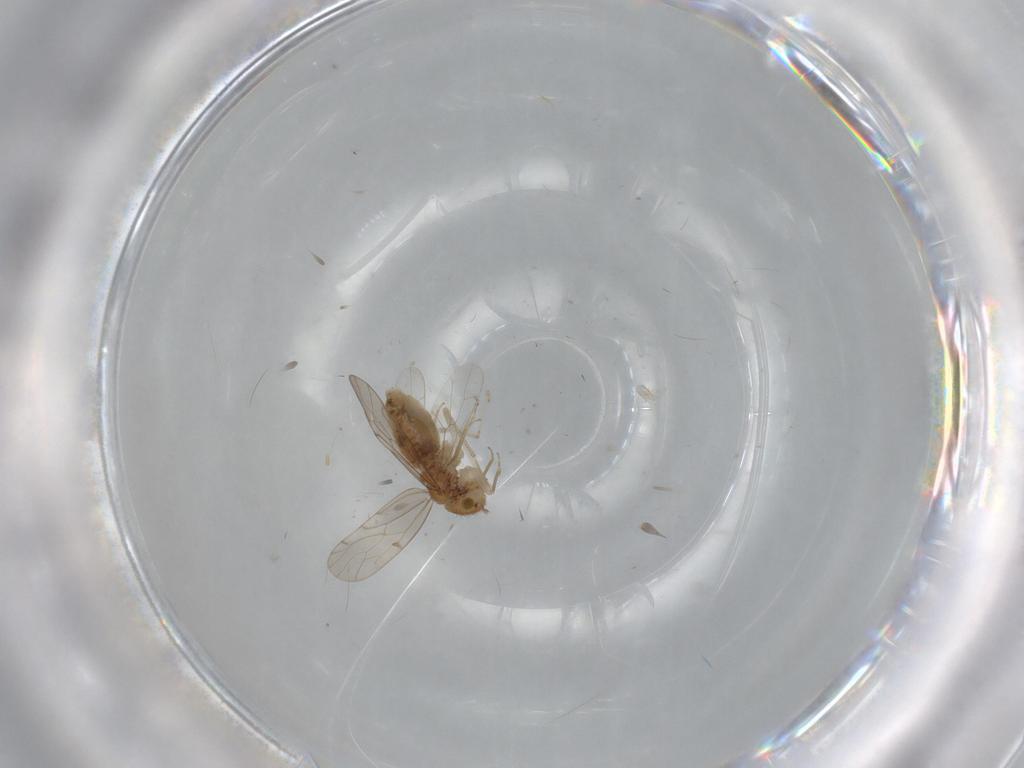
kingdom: Animalia
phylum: Arthropoda
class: Insecta
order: Psocodea
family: Ectopsocidae
